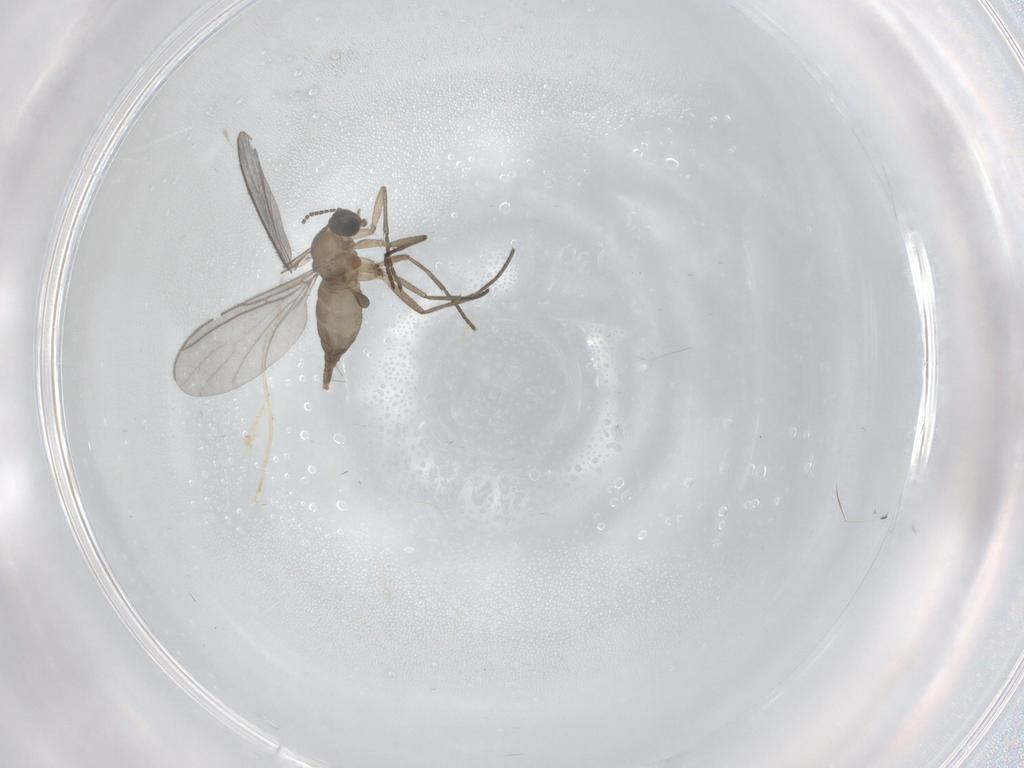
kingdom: Animalia
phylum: Arthropoda
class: Insecta
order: Diptera
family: Sciaridae
